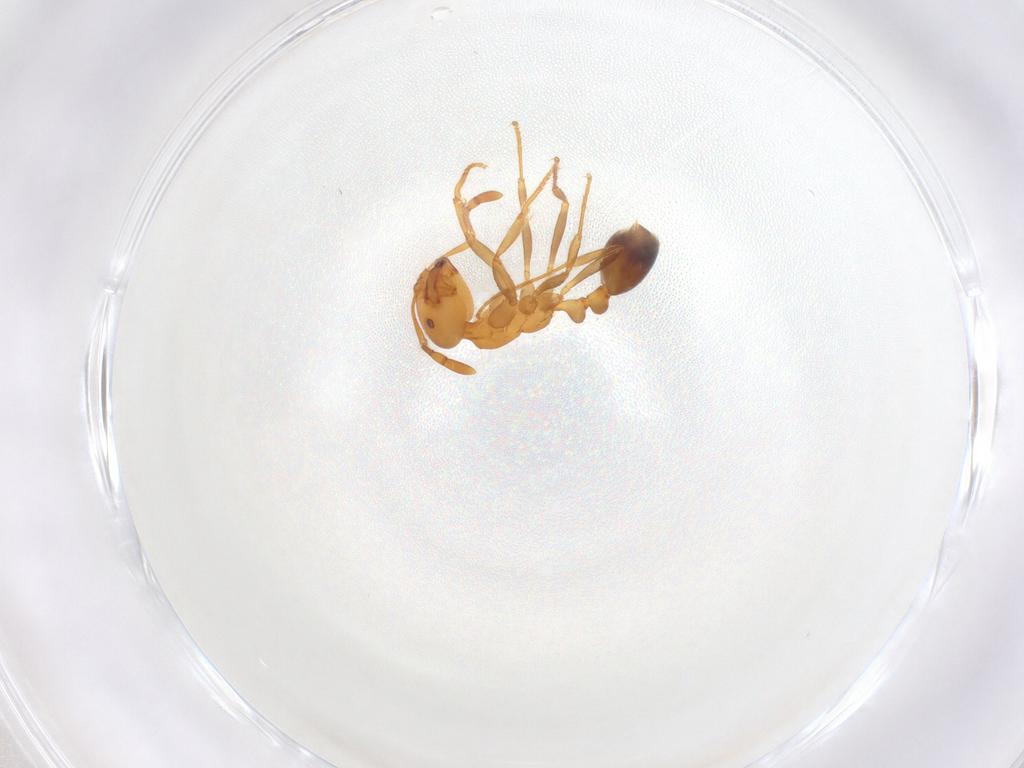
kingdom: Animalia
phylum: Arthropoda
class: Insecta
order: Hymenoptera
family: Formicidae
